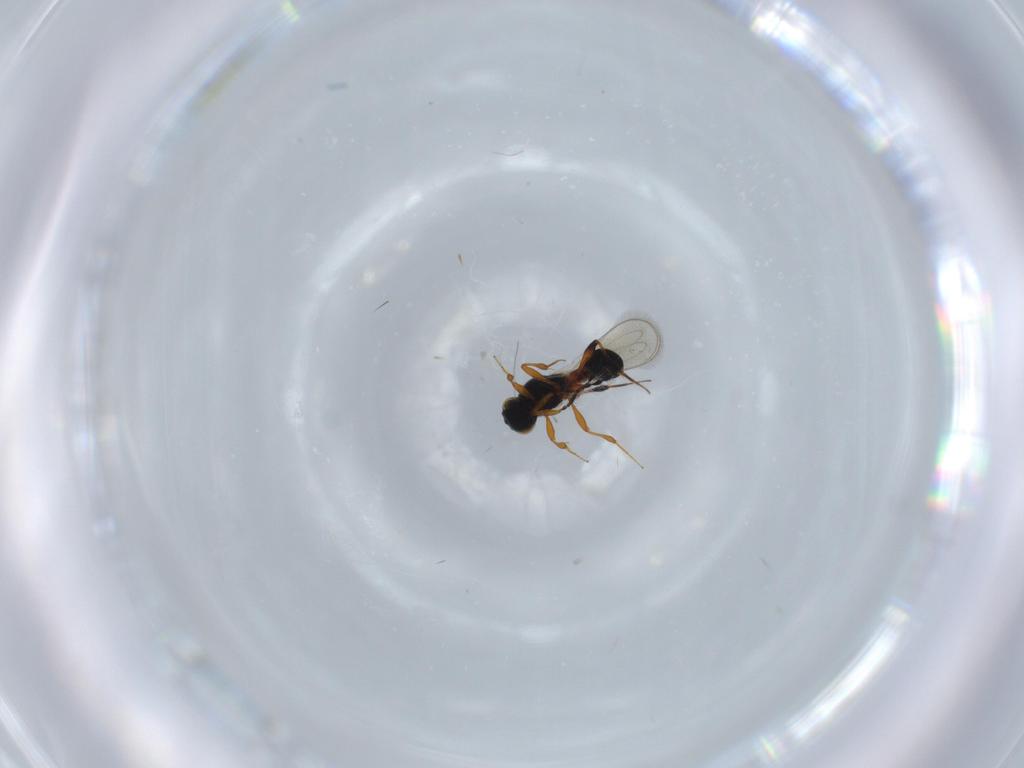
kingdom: Animalia
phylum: Arthropoda
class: Insecta
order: Hymenoptera
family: Platygastridae
